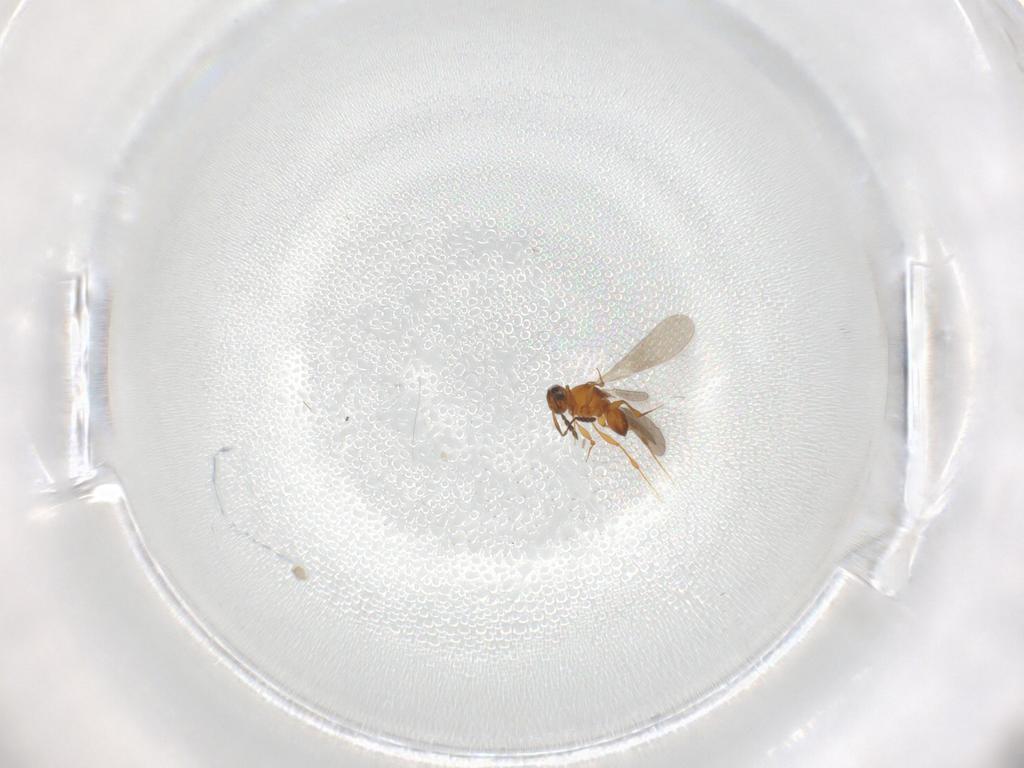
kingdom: Animalia
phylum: Arthropoda
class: Insecta
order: Hymenoptera
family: Platygastridae
